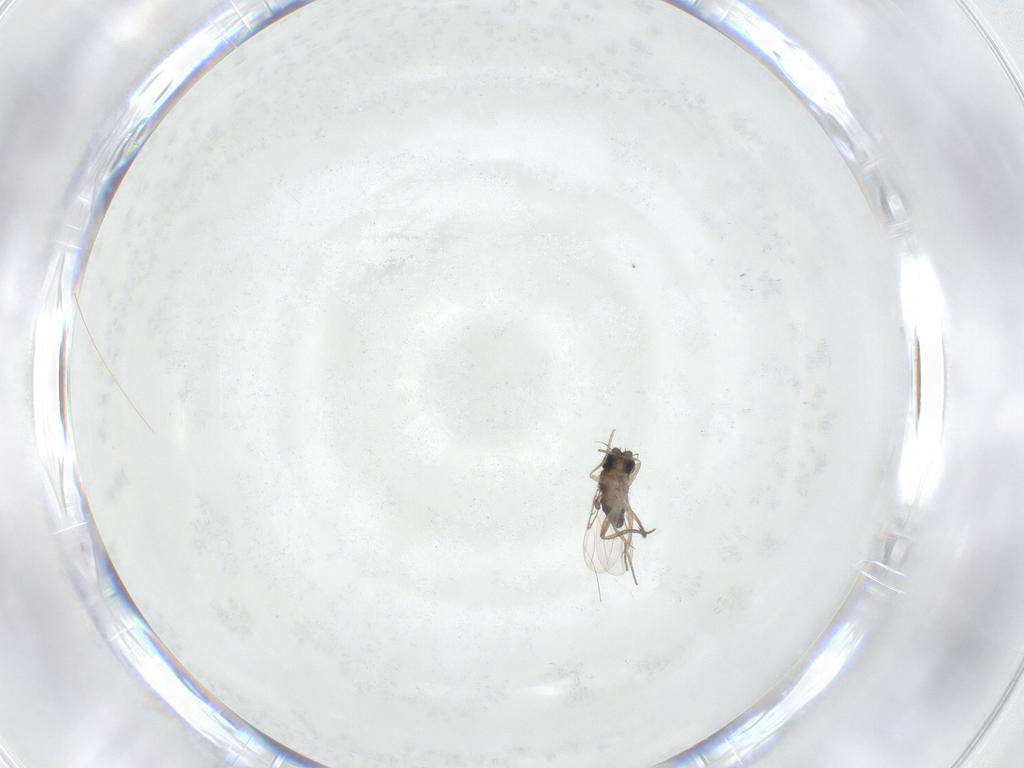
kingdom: Animalia
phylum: Arthropoda
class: Insecta
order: Diptera
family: Phoridae
